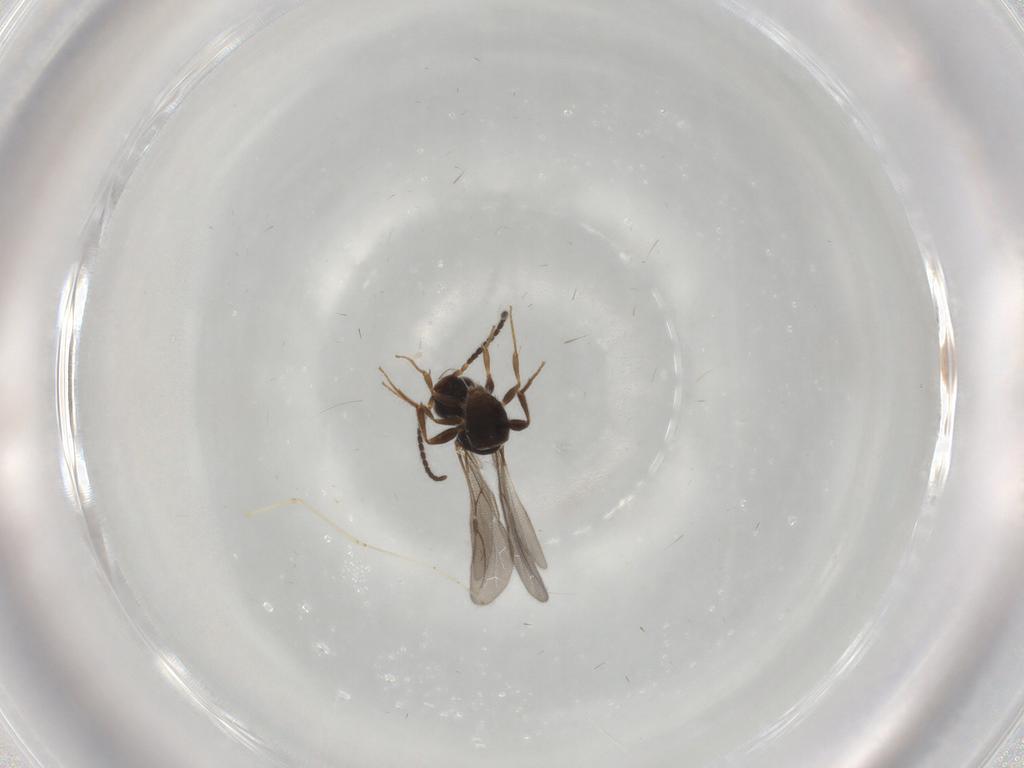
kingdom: Animalia
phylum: Arthropoda
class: Insecta
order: Hymenoptera
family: Bethylidae
